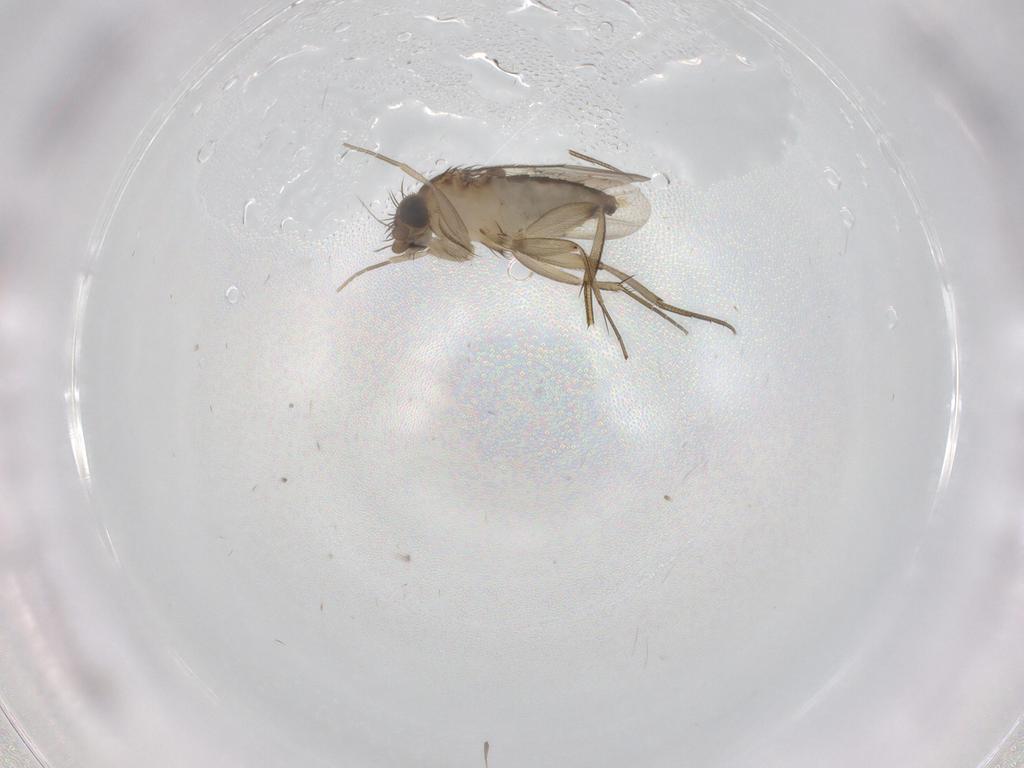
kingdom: Animalia
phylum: Arthropoda
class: Insecta
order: Diptera
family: Phoridae
